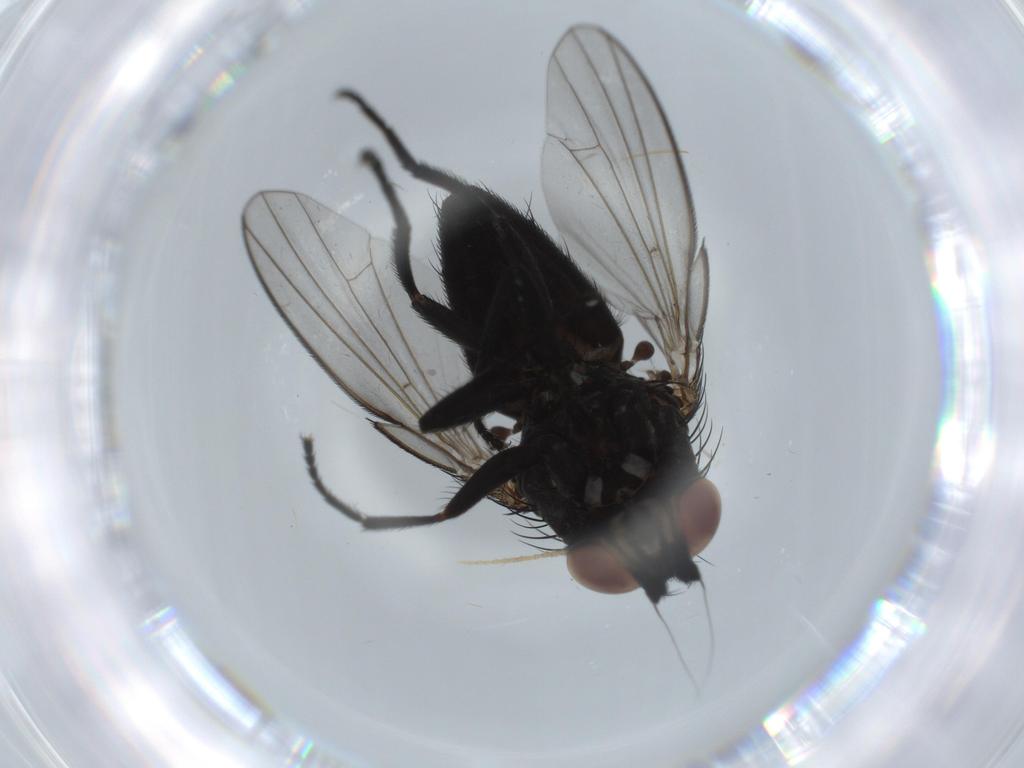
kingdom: Animalia
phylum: Arthropoda
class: Insecta
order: Diptera
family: Milichiidae
